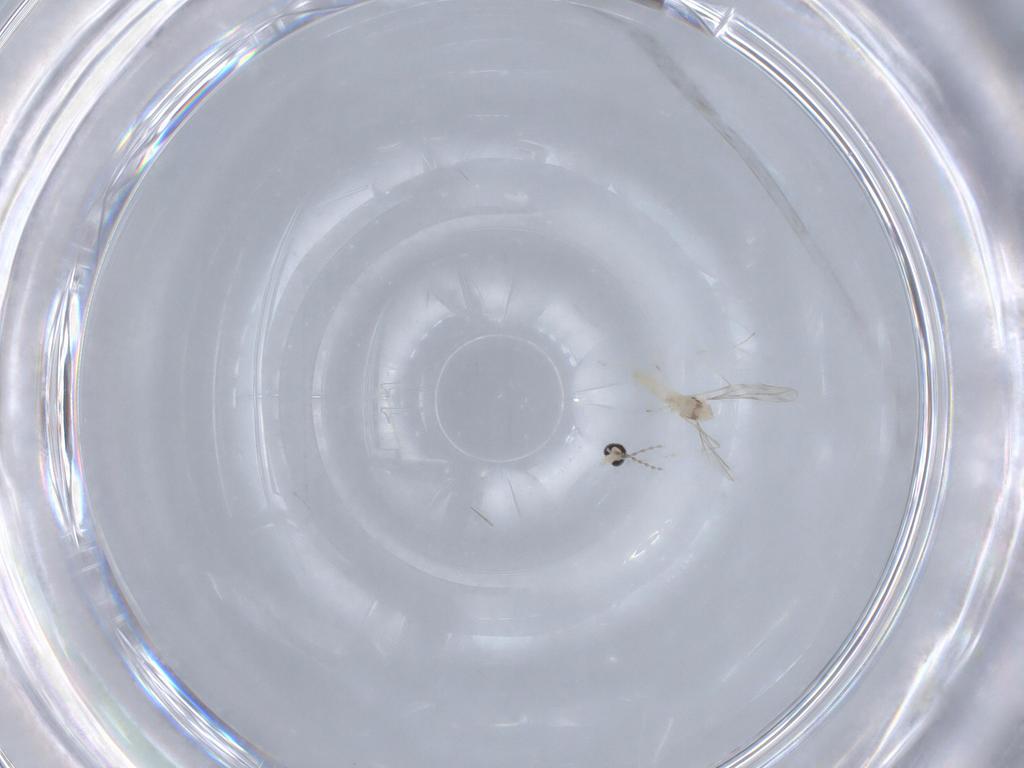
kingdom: Animalia
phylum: Arthropoda
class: Insecta
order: Diptera
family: Cecidomyiidae
